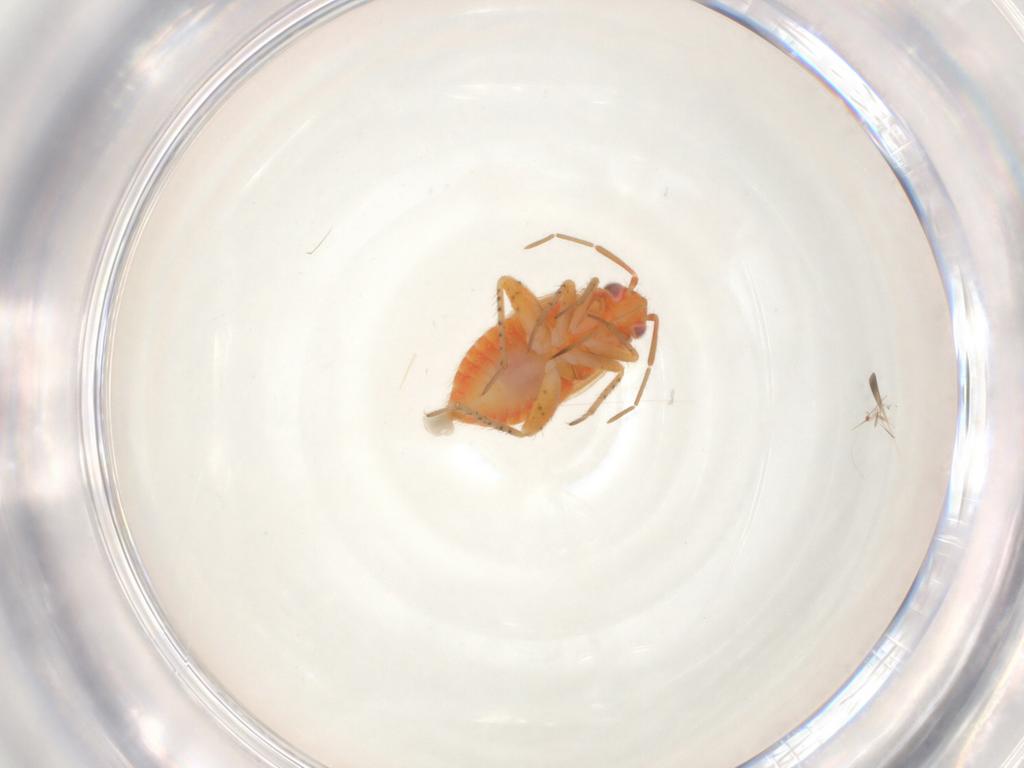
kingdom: Animalia
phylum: Arthropoda
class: Insecta
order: Hemiptera
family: Miridae
